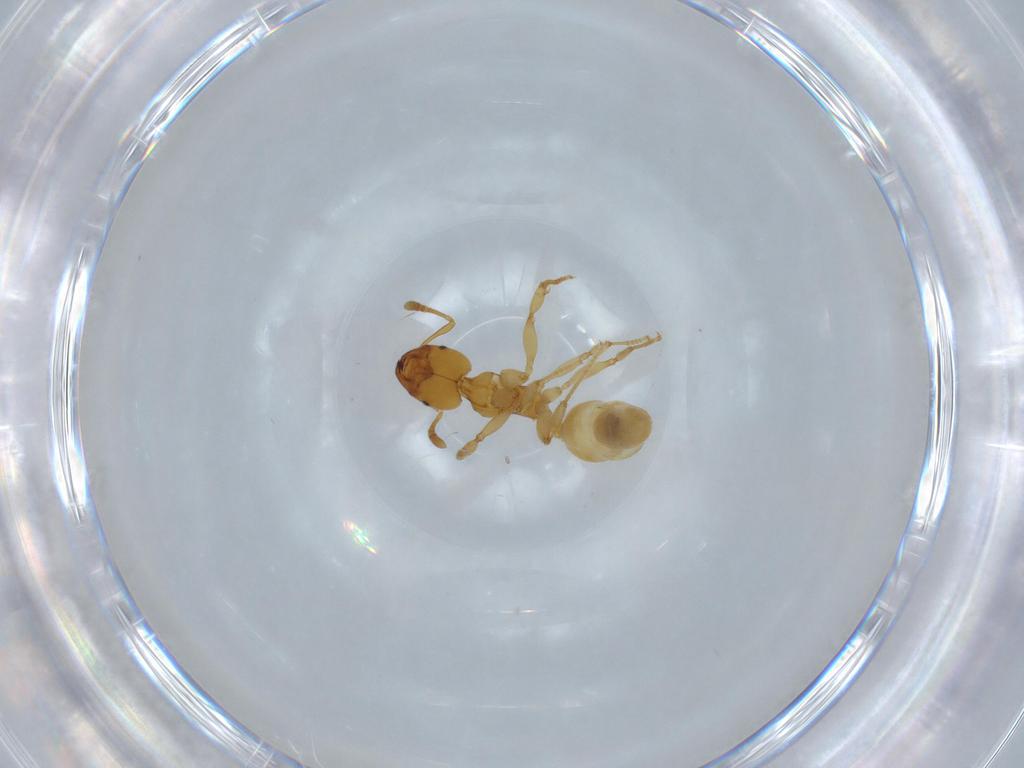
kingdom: Animalia
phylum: Arthropoda
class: Insecta
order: Hymenoptera
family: Formicidae
